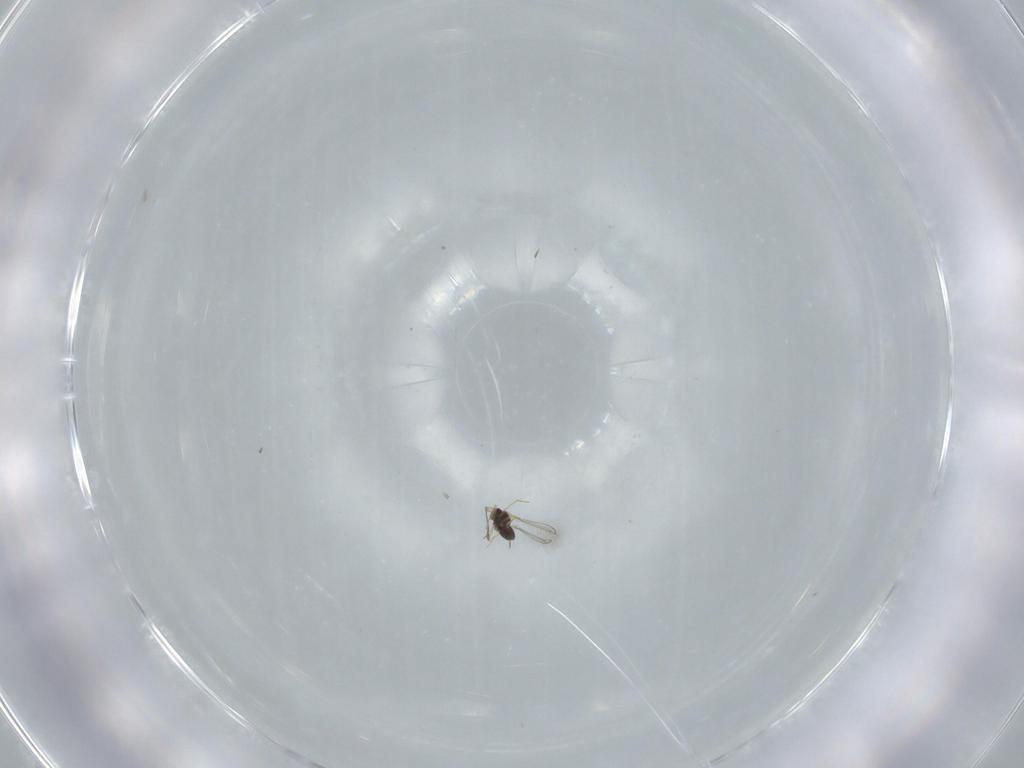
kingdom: Animalia
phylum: Arthropoda
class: Insecta
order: Hymenoptera
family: Mymaridae
